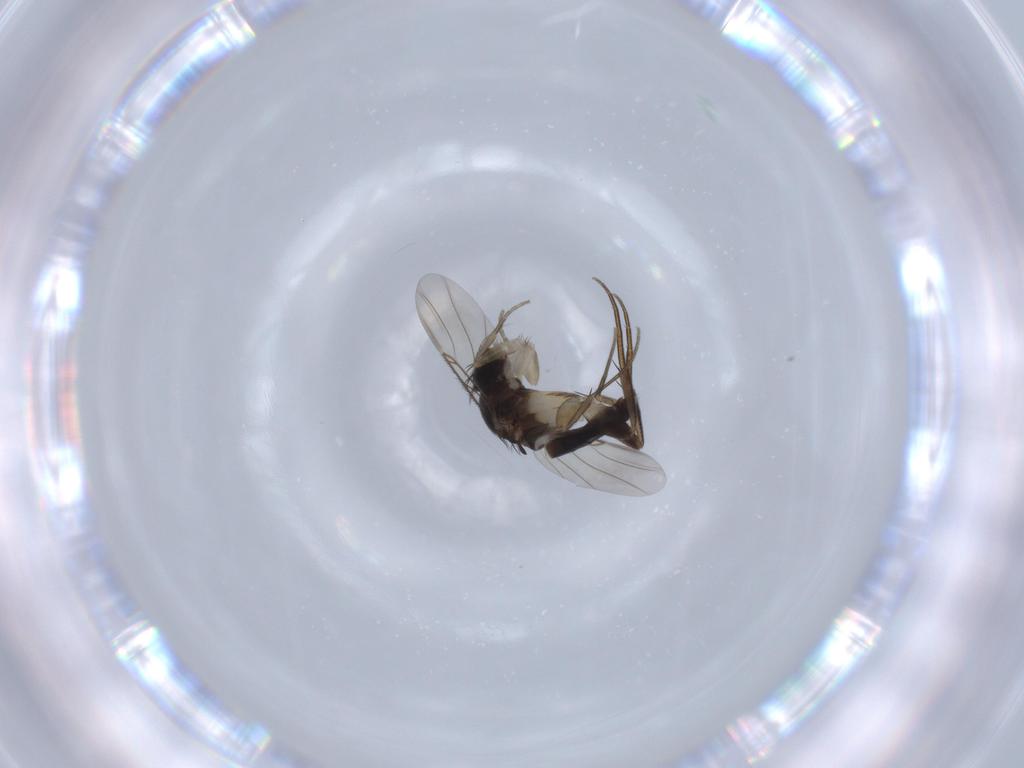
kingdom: Animalia
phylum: Arthropoda
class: Insecta
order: Diptera
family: Phoridae
